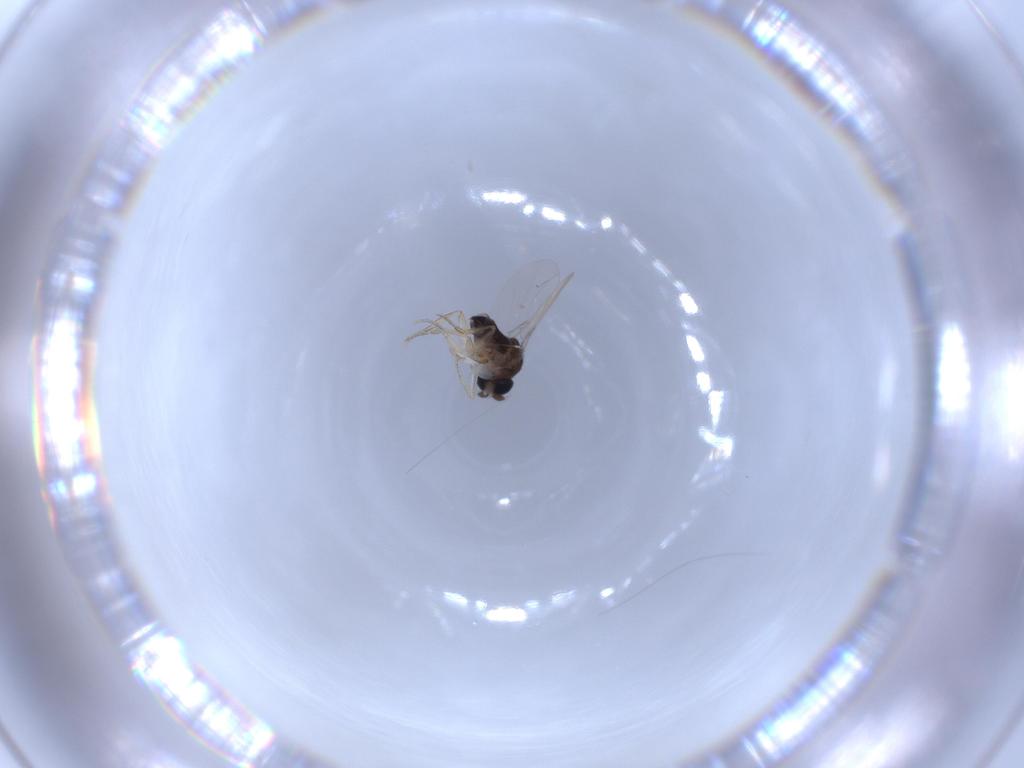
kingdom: Animalia
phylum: Arthropoda
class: Insecta
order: Diptera
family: Phoridae
